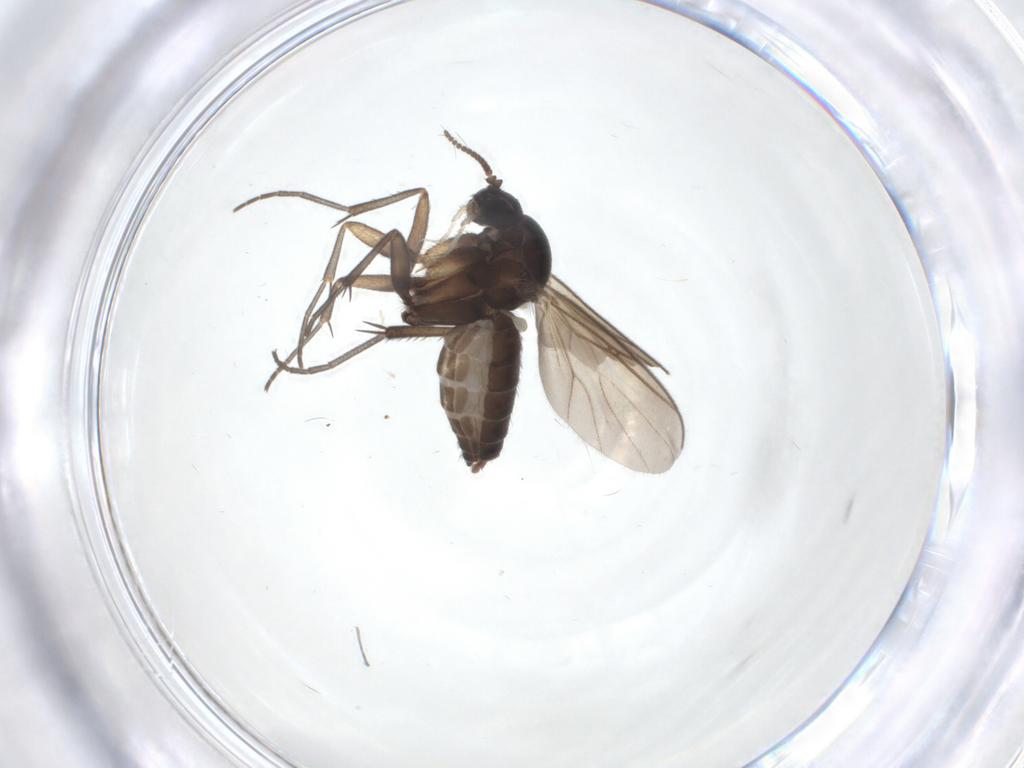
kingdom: Animalia
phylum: Arthropoda
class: Insecta
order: Diptera
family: Mycetophilidae
